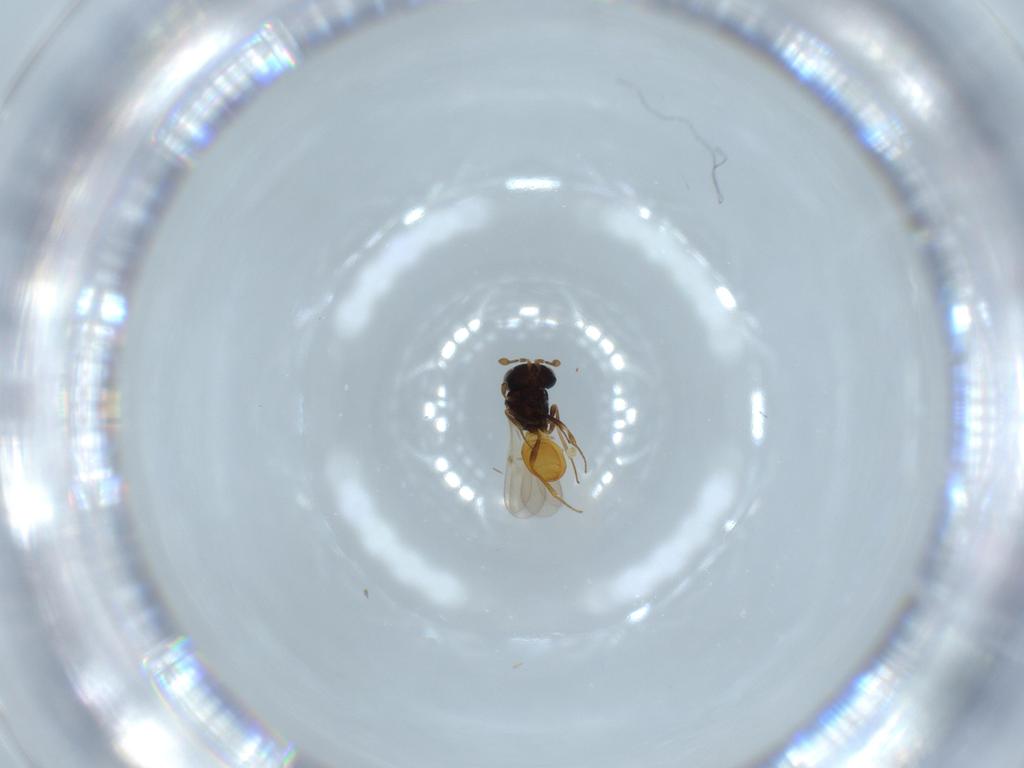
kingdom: Animalia
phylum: Arthropoda
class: Insecta
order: Hymenoptera
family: Scelionidae
